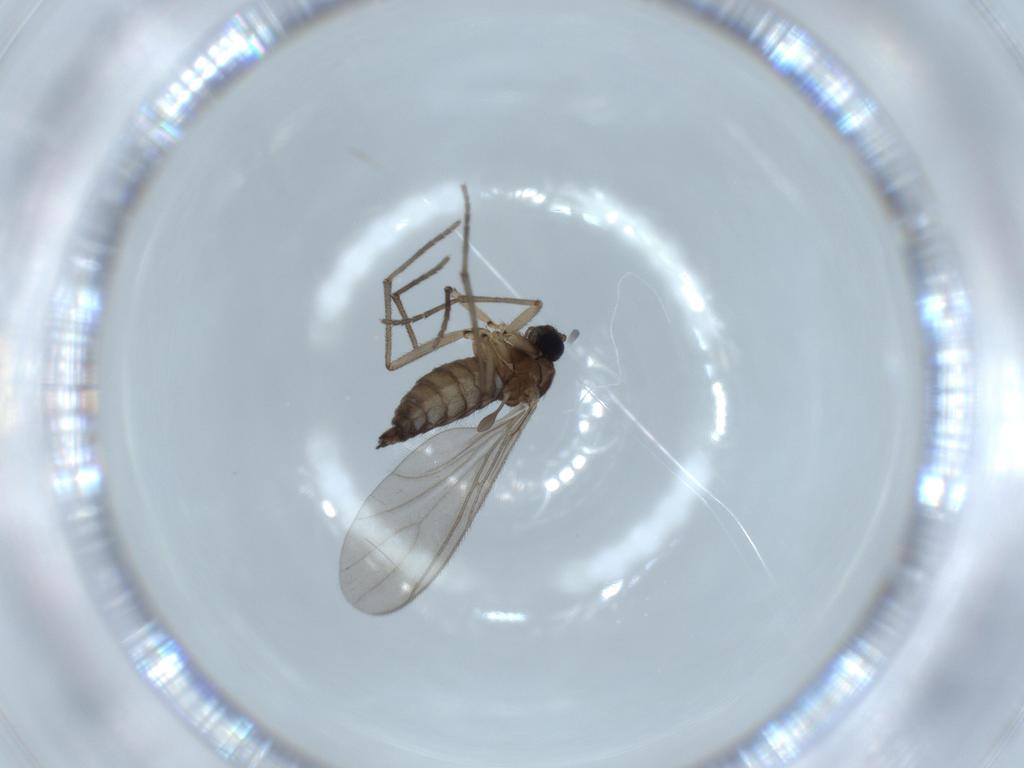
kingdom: Animalia
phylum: Arthropoda
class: Insecta
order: Diptera
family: Sciaridae
